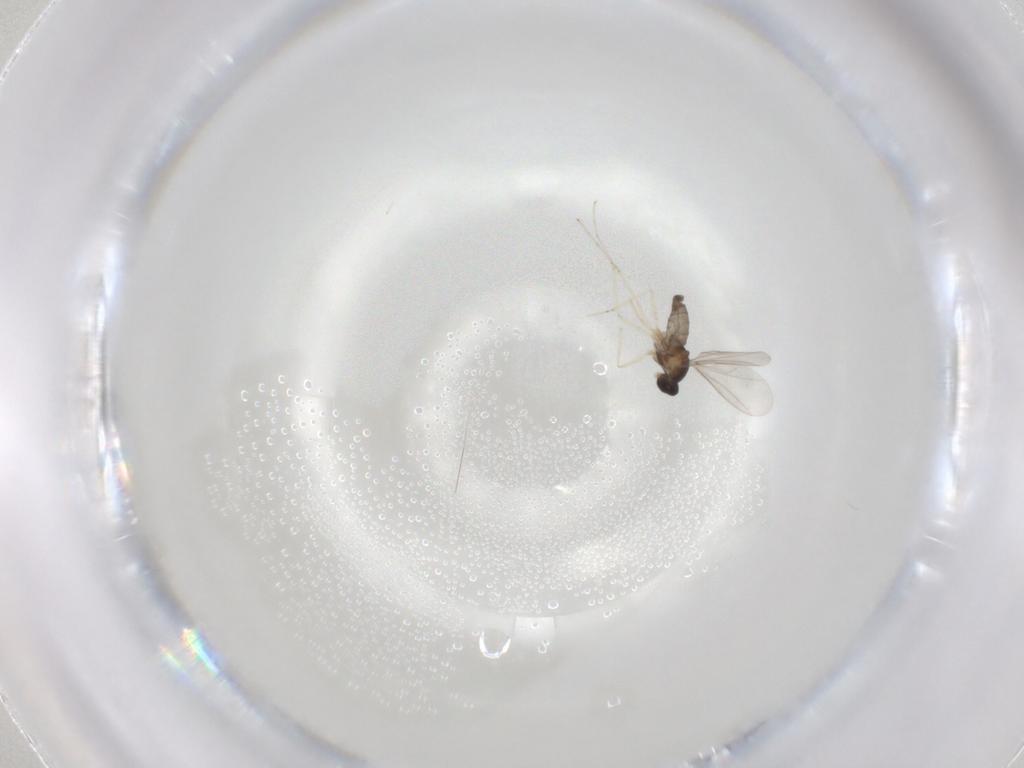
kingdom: Animalia
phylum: Arthropoda
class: Insecta
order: Diptera
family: Cecidomyiidae
